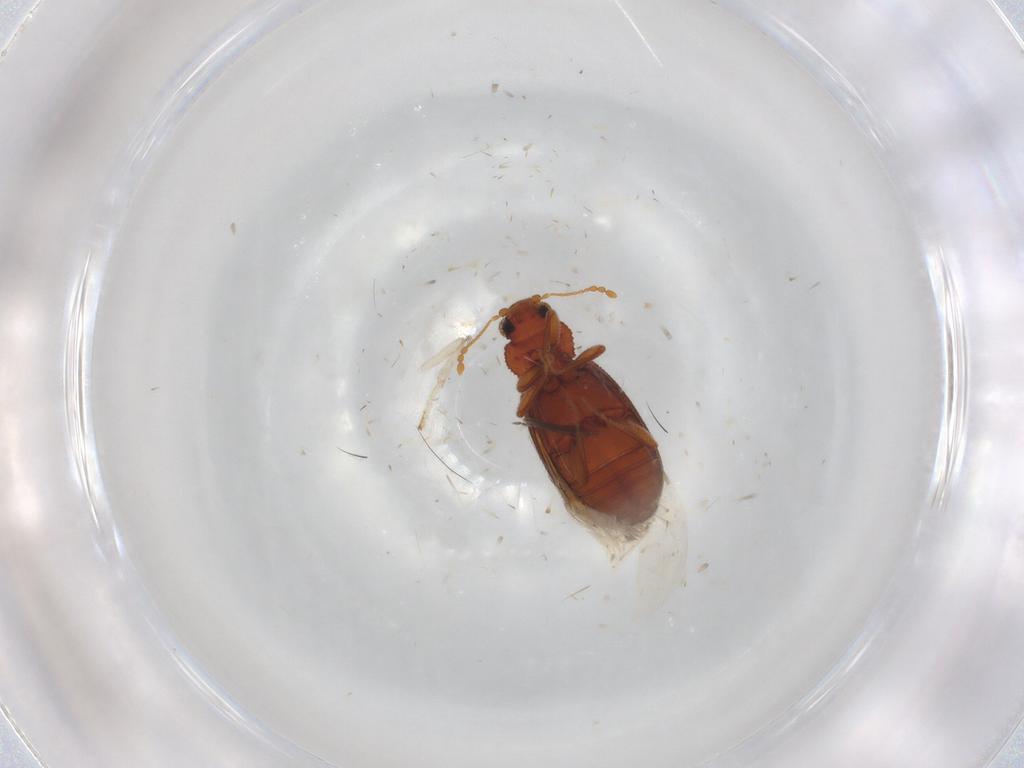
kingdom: Animalia
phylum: Arthropoda
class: Insecta
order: Coleoptera
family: Latridiidae
